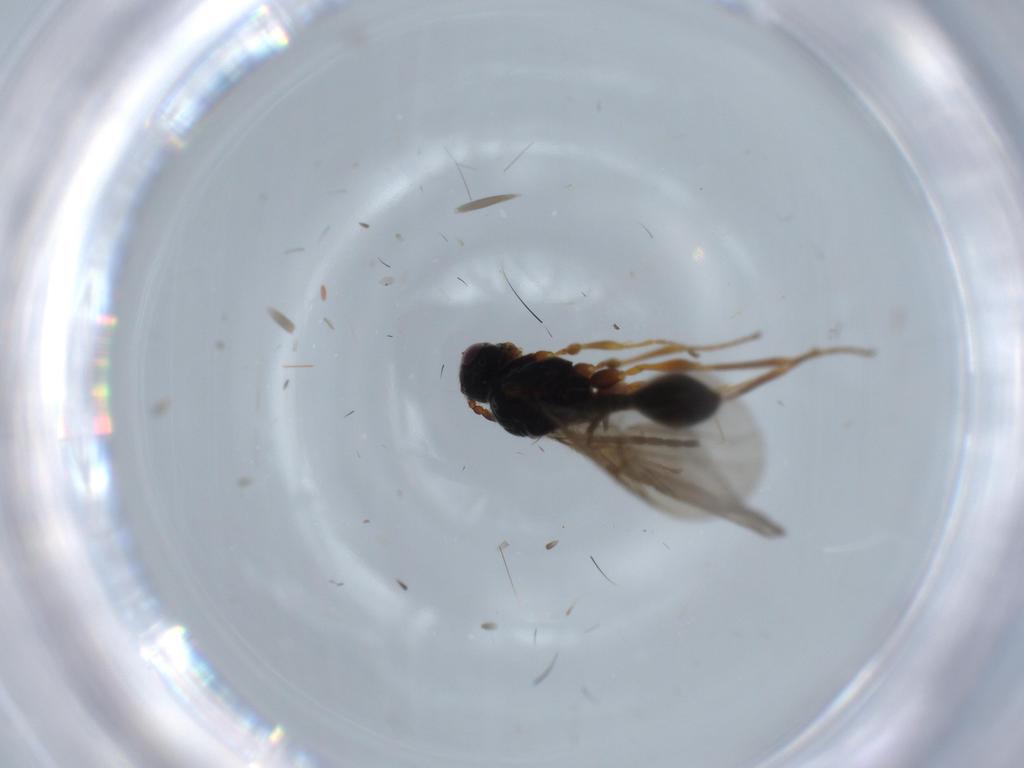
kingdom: Animalia
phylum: Arthropoda
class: Insecta
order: Hymenoptera
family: Diapriidae
